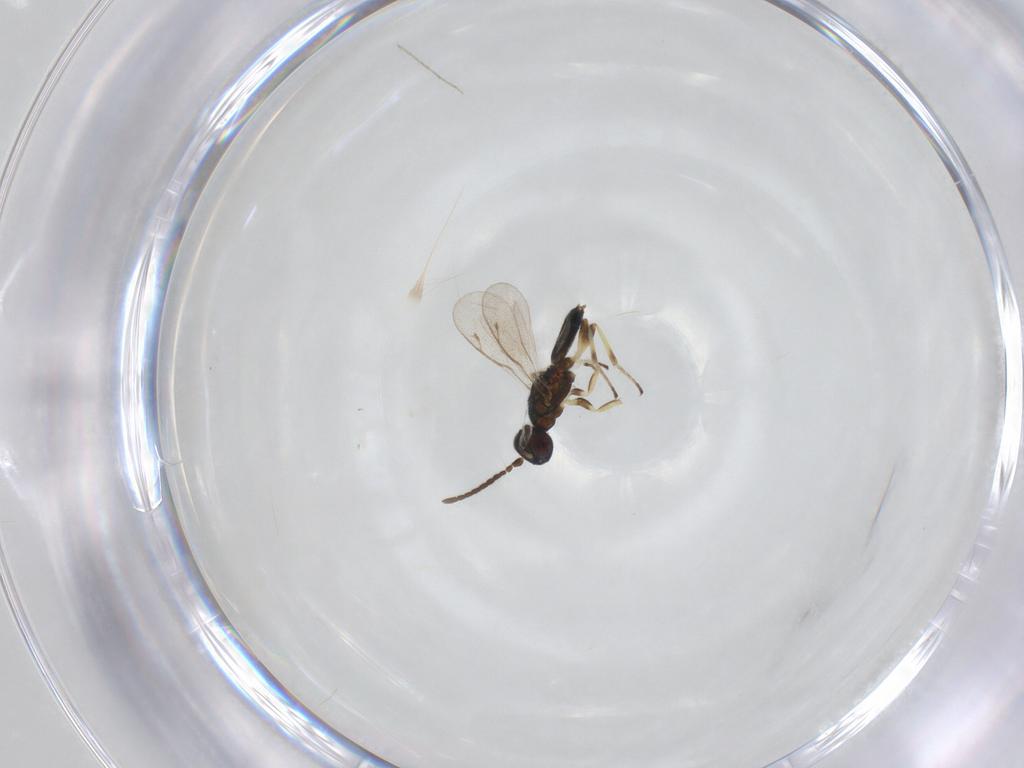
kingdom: Animalia
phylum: Arthropoda
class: Insecta
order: Hymenoptera
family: Eupelmidae
